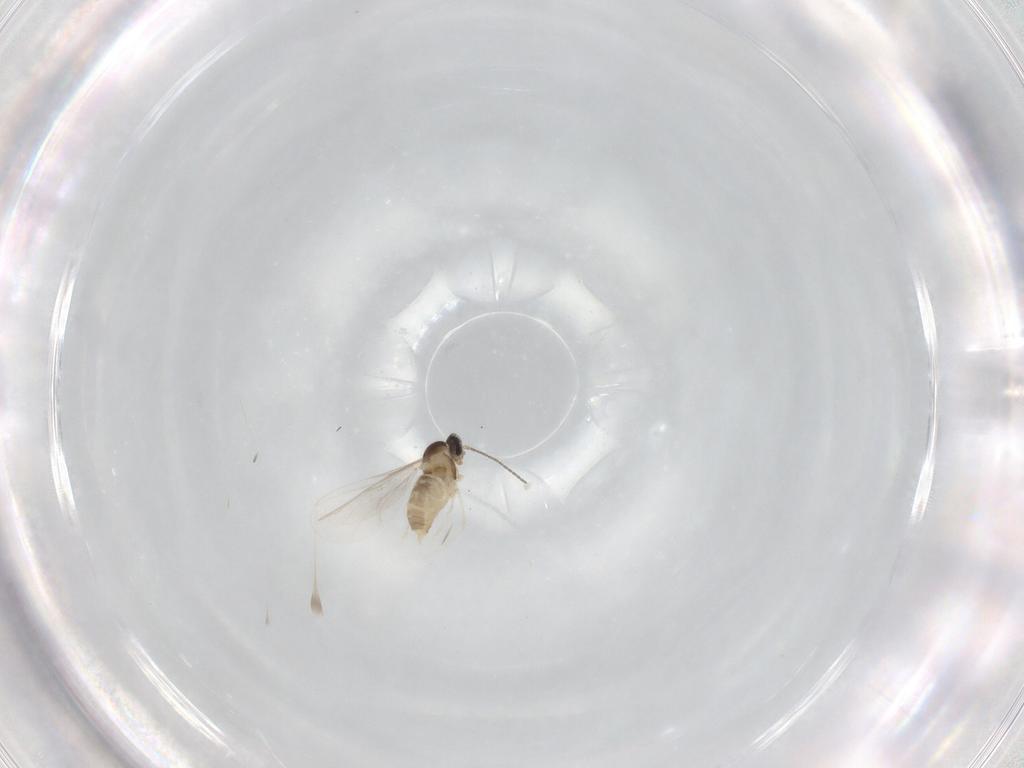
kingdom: Animalia
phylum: Arthropoda
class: Insecta
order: Diptera
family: Cecidomyiidae
